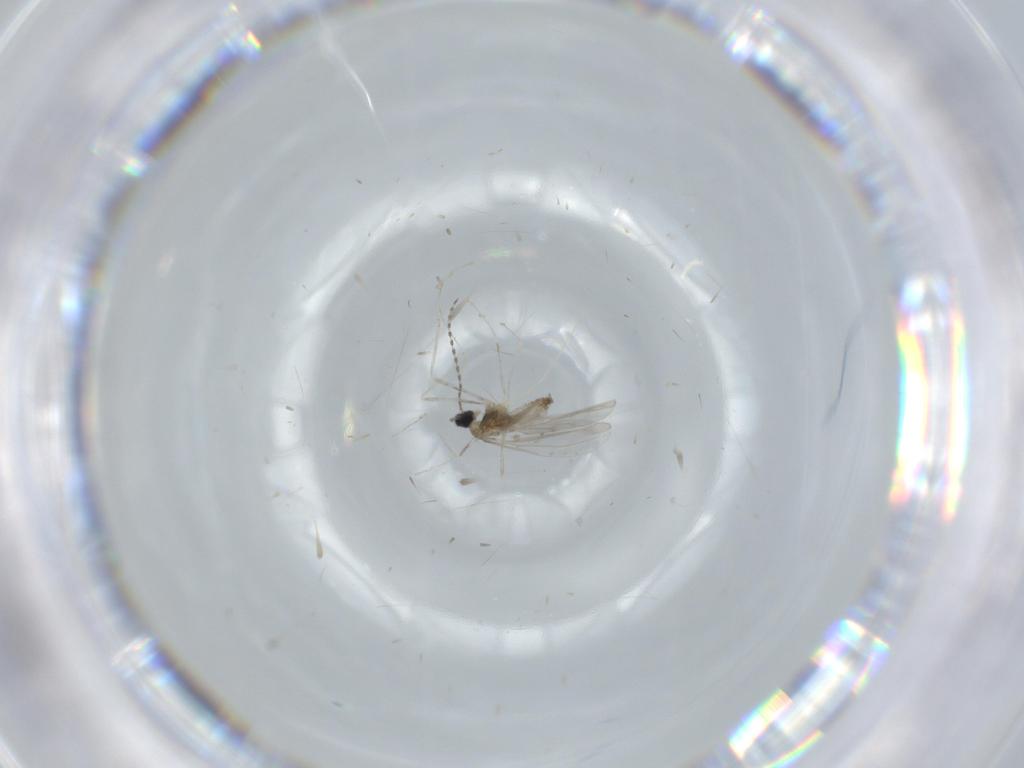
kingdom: Animalia
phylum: Arthropoda
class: Insecta
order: Diptera
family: Cecidomyiidae
